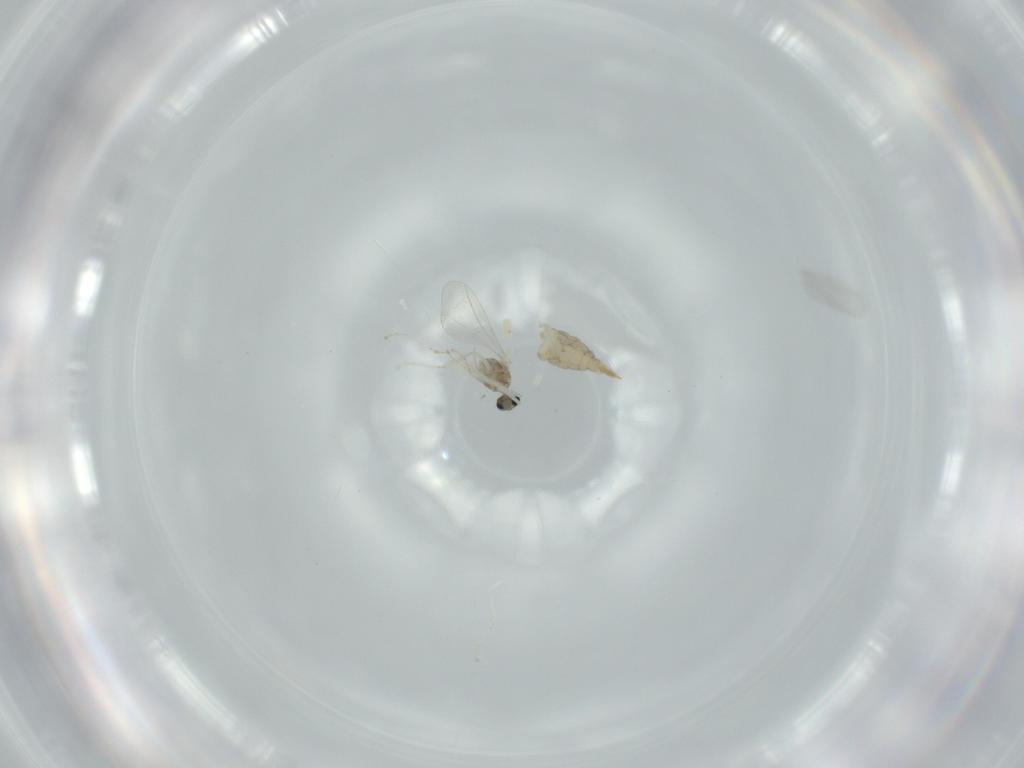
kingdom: Animalia
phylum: Arthropoda
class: Insecta
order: Diptera
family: Cecidomyiidae
